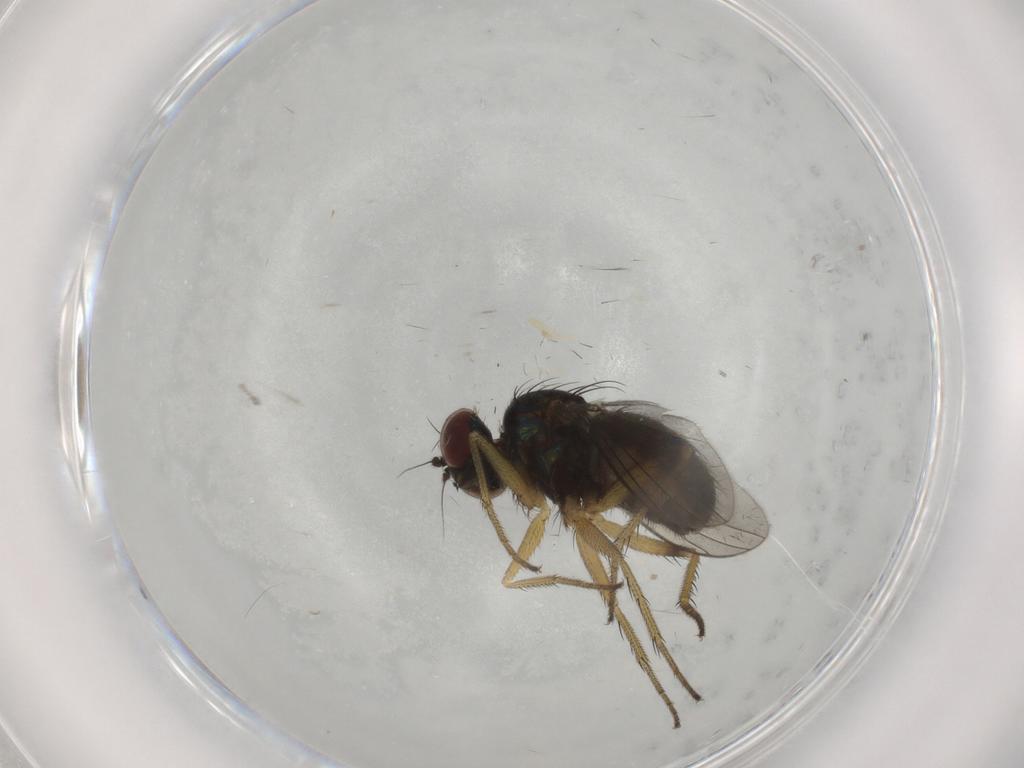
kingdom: Animalia
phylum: Arthropoda
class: Insecta
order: Diptera
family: Dolichopodidae
